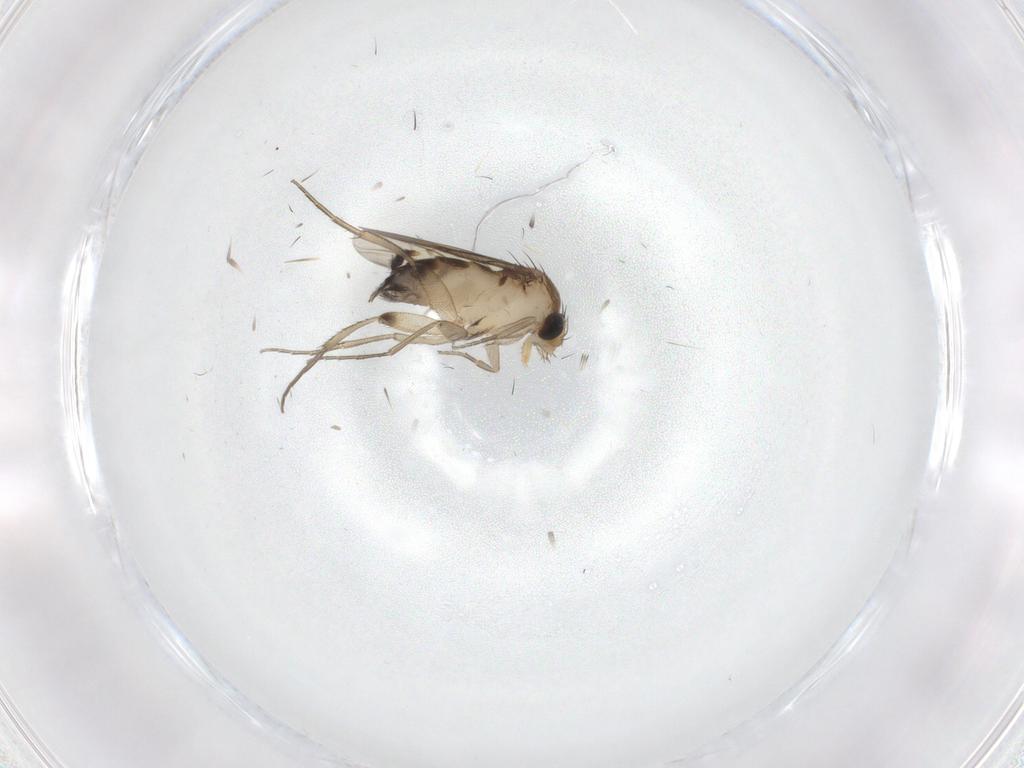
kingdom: Animalia
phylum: Arthropoda
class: Insecta
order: Diptera
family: Phoridae
